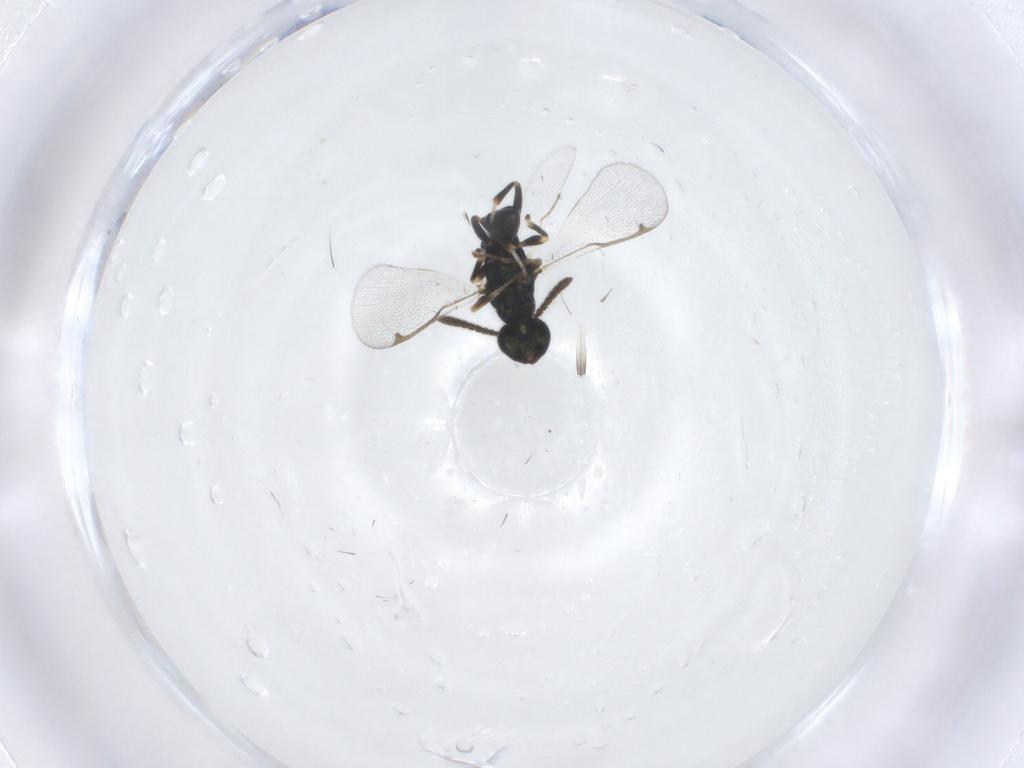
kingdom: Animalia
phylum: Arthropoda
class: Insecta
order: Hymenoptera
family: Torymidae
